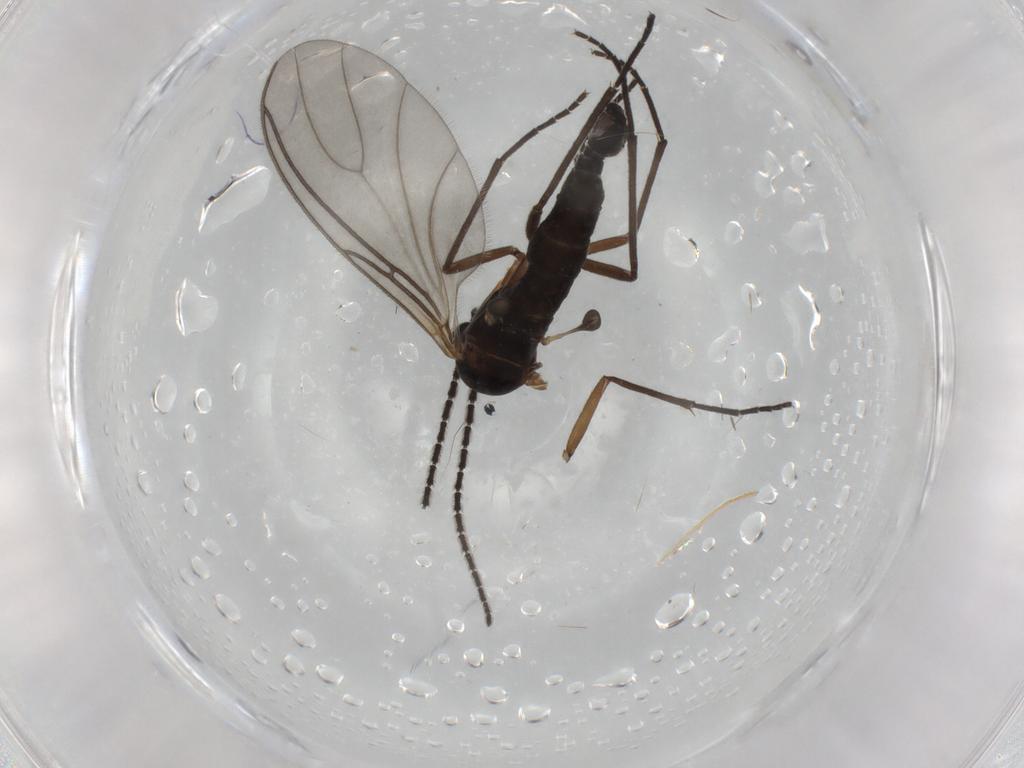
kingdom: Animalia
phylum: Arthropoda
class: Insecta
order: Diptera
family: Sciaridae
